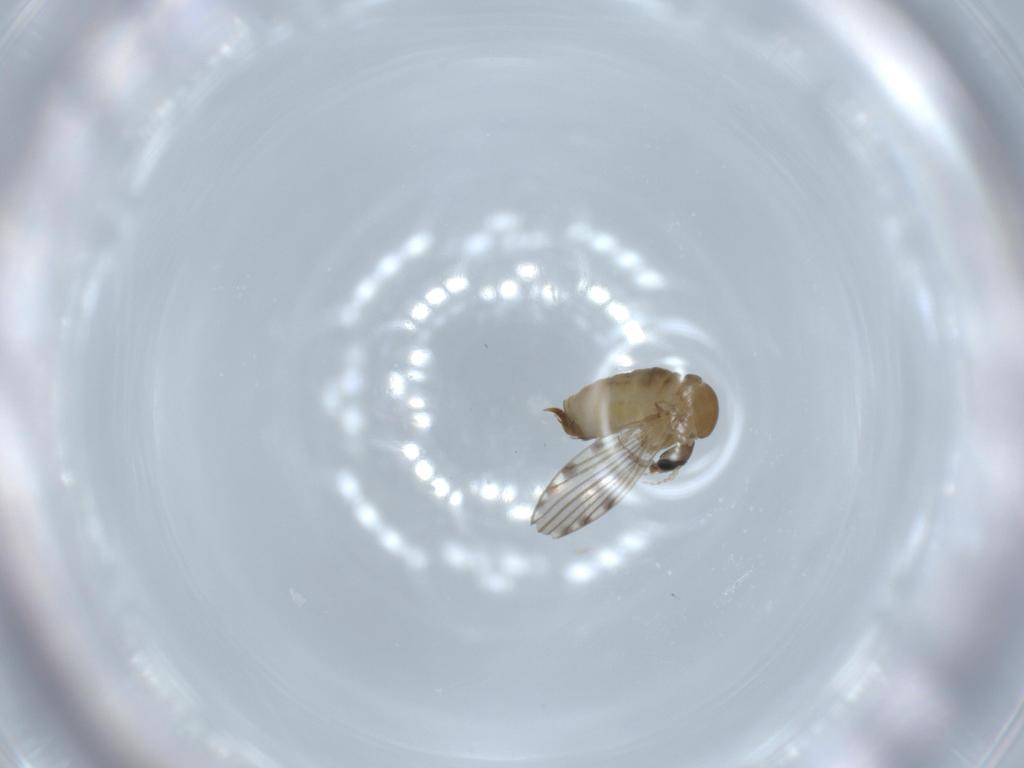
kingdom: Animalia
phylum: Arthropoda
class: Insecta
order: Diptera
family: Psychodidae
